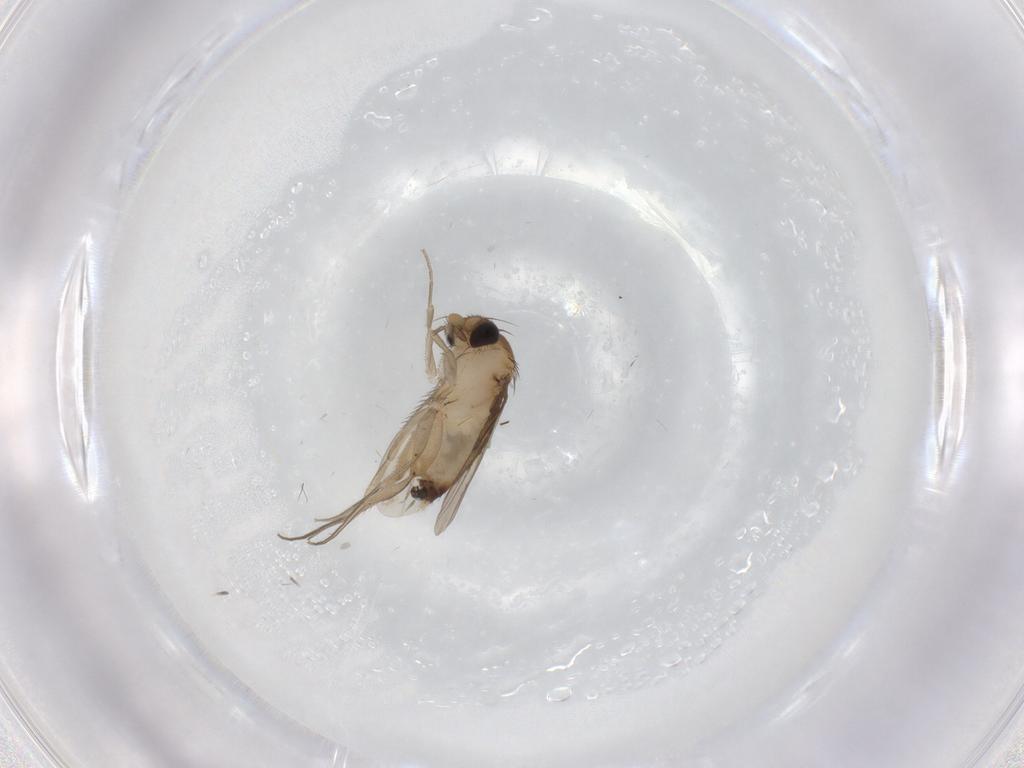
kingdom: Animalia
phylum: Arthropoda
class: Insecta
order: Diptera
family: Phoridae
